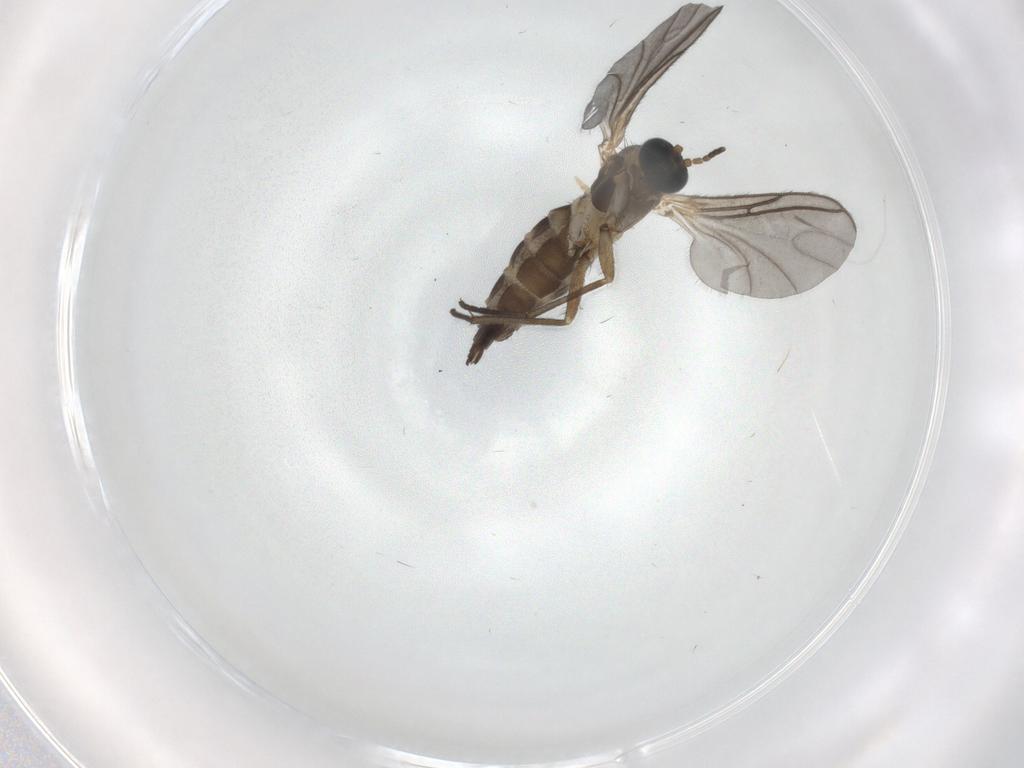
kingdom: Animalia
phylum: Arthropoda
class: Insecta
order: Diptera
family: Sciaridae
